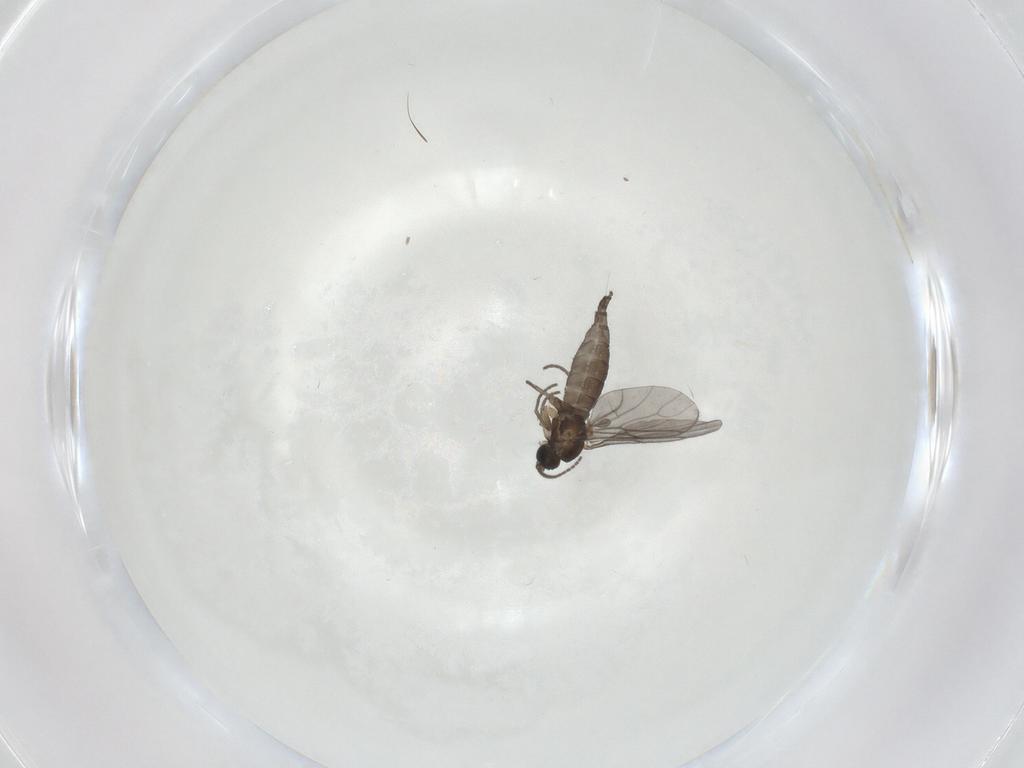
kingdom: Animalia
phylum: Arthropoda
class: Insecta
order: Diptera
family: Sciaridae
